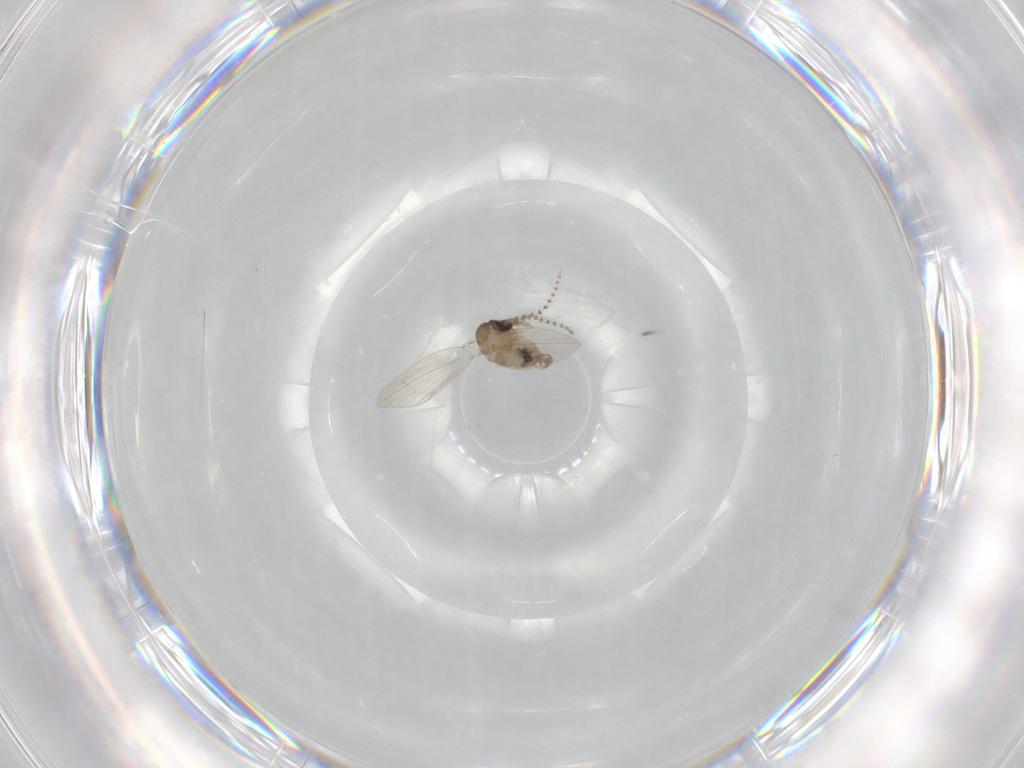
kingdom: Animalia
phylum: Arthropoda
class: Insecta
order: Diptera
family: Psychodidae
